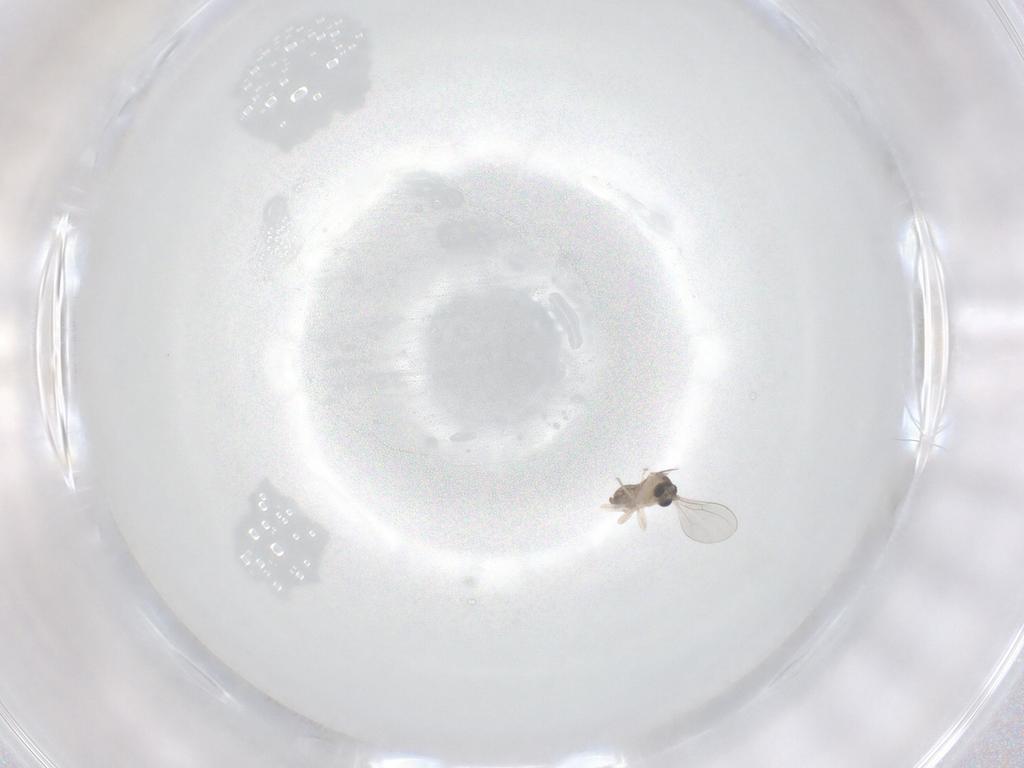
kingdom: Animalia
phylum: Arthropoda
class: Insecta
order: Diptera
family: Cecidomyiidae
